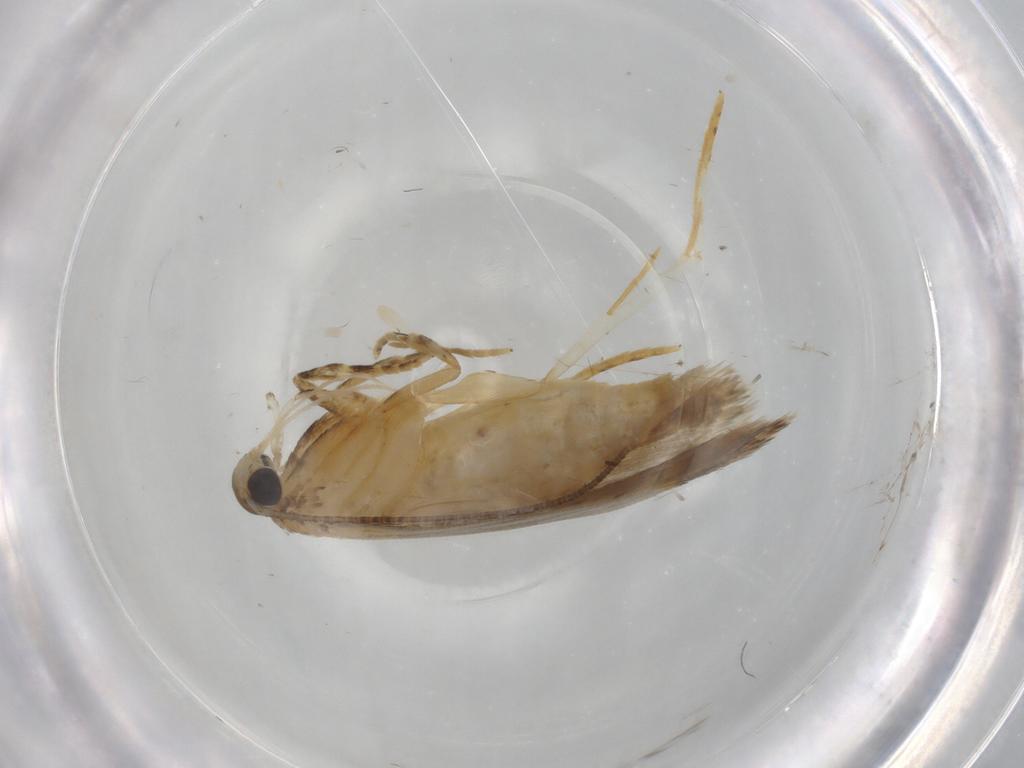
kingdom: Animalia
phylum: Arthropoda
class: Insecta
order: Lepidoptera
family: Autostichidae
